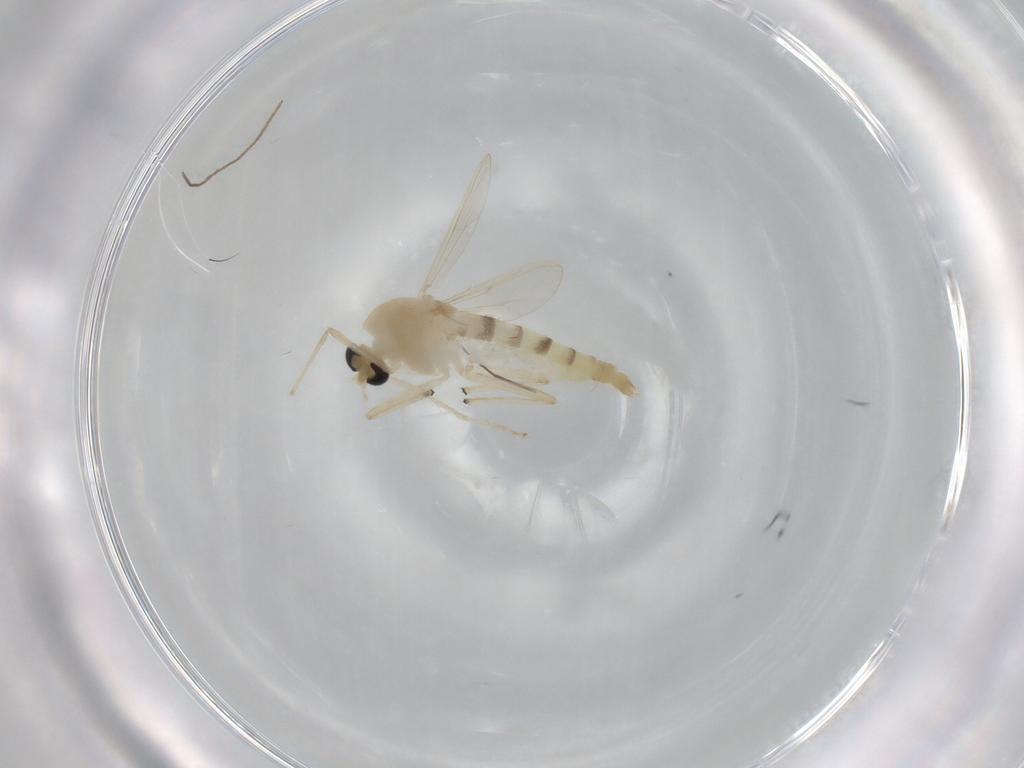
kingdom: Animalia
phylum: Arthropoda
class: Insecta
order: Diptera
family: Chironomidae
